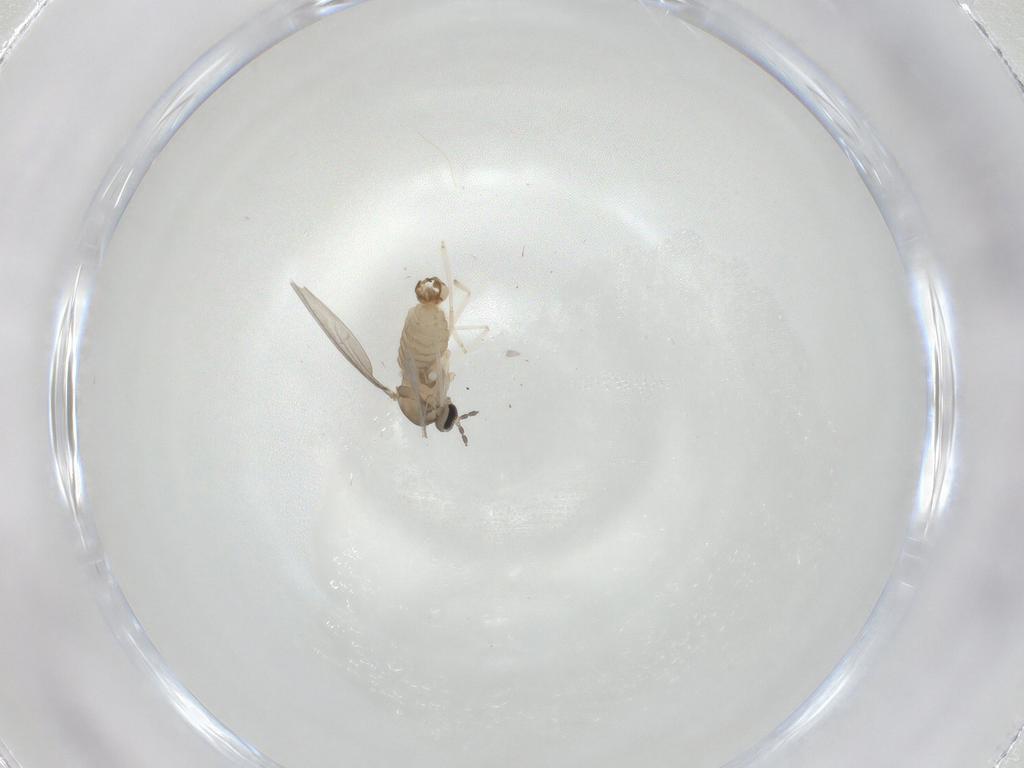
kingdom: Animalia
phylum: Arthropoda
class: Insecta
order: Diptera
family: Cecidomyiidae
